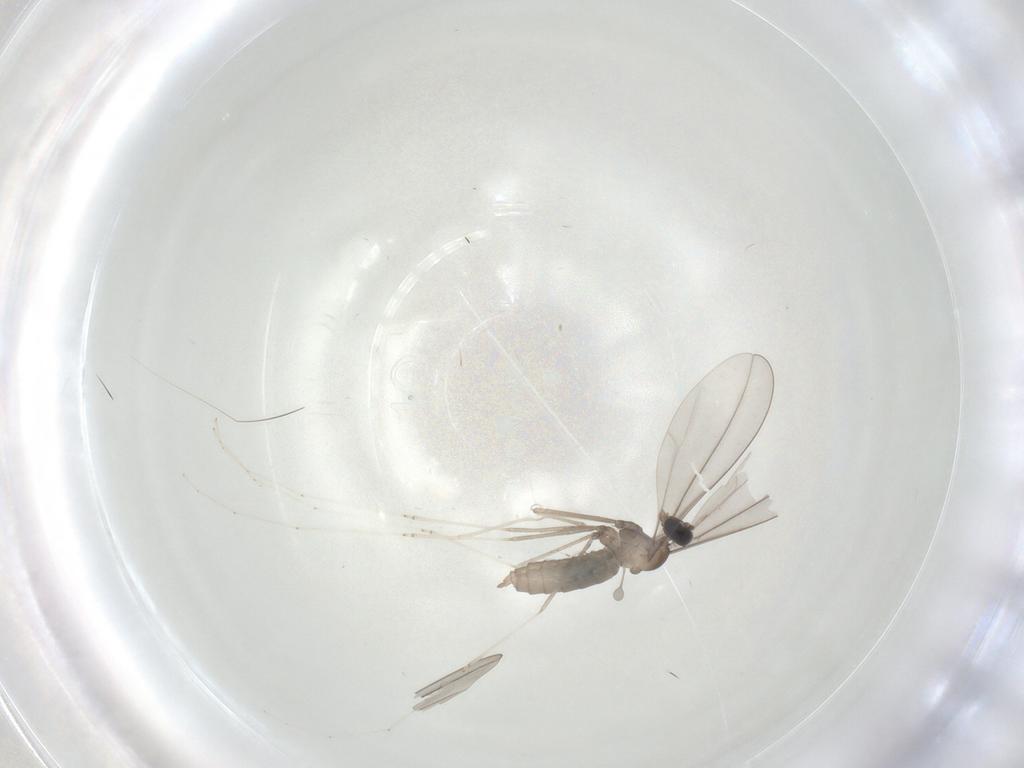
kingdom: Animalia
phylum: Arthropoda
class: Insecta
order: Diptera
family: Cecidomyiidae
